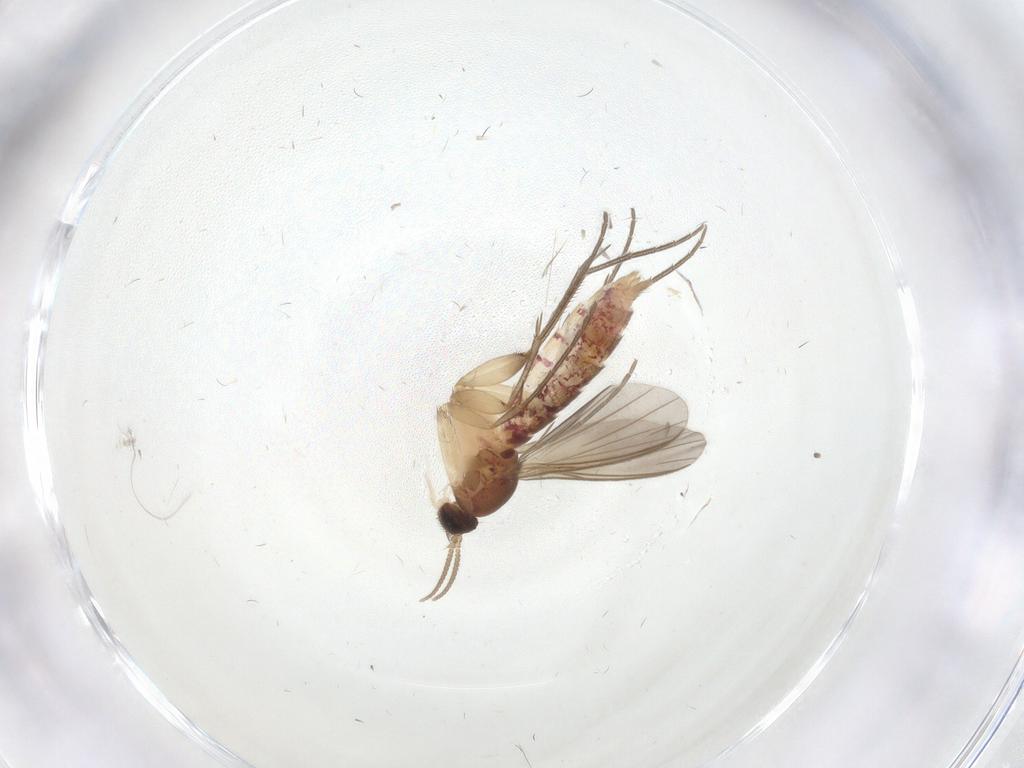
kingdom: Animalia
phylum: Arthropoda
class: Insecta
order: Diptera
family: Mycetophilidae
